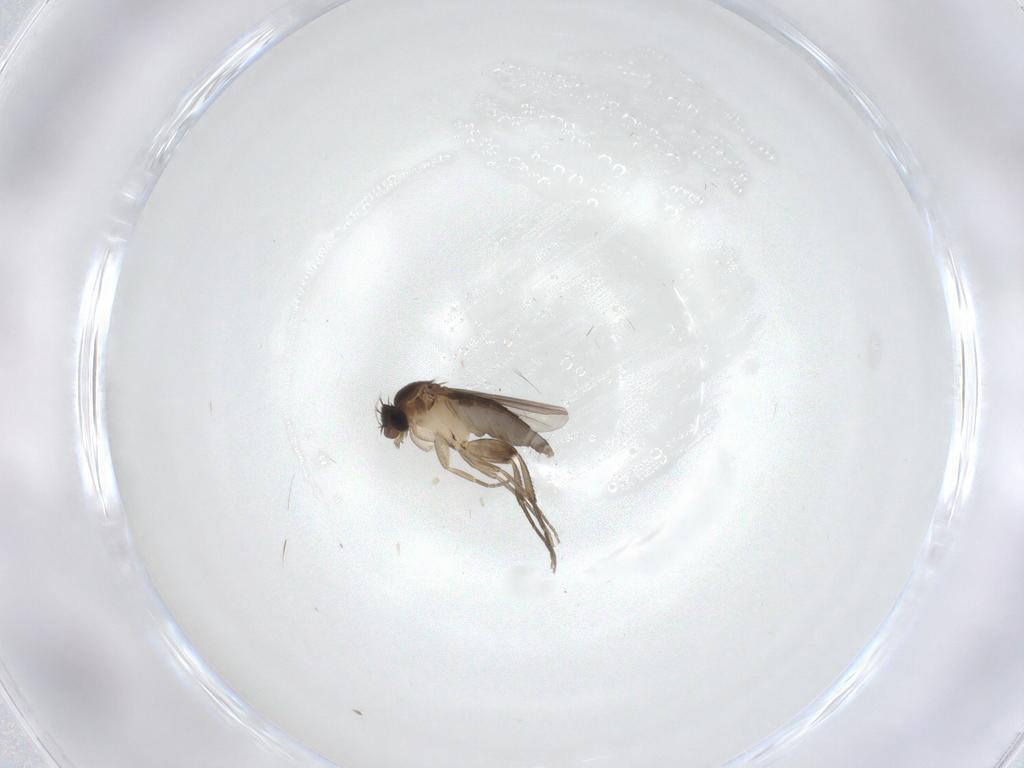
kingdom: Animalia
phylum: Arthropoda
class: Insecta
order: Diptera
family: Phoridae
